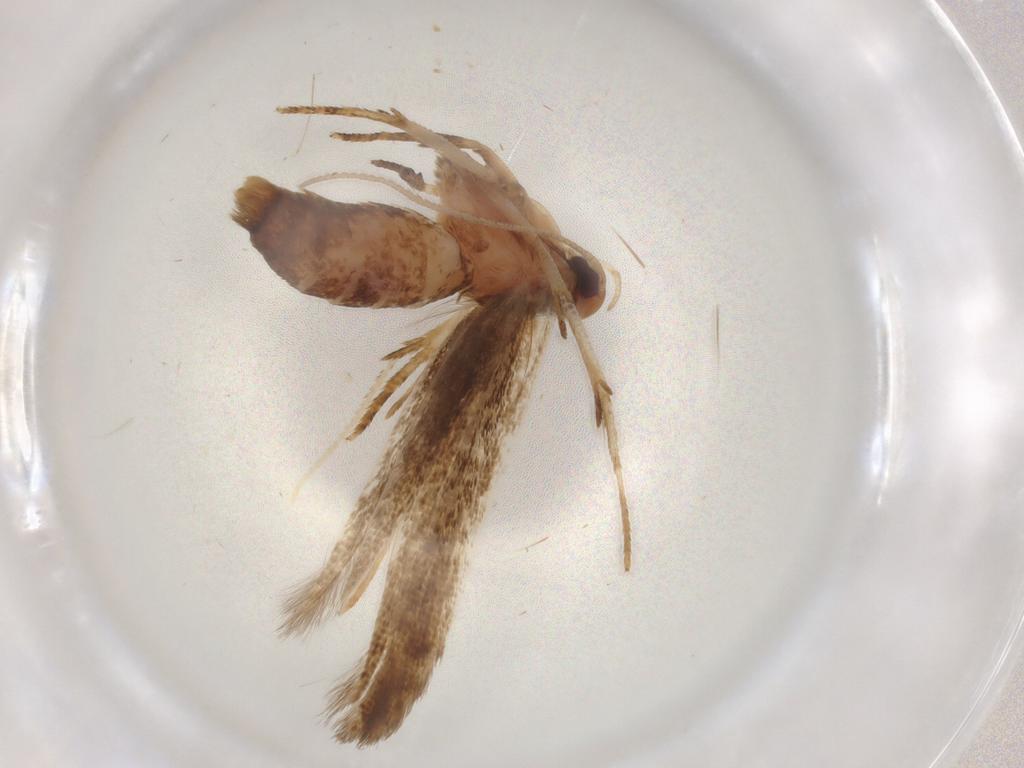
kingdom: Animalia
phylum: Arthropoda
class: Insecta
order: Lepidoptera
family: Cosmopterigidae
